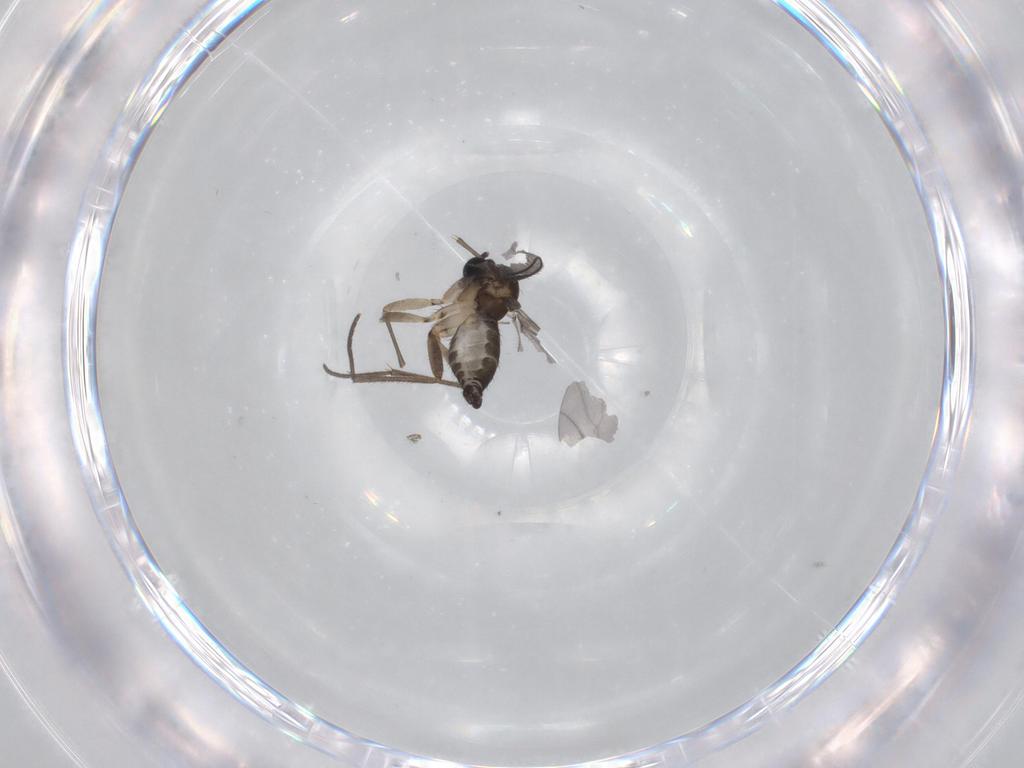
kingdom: Animalia
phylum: Arthropoda
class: Insecta
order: Diptera
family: Sciaridae
